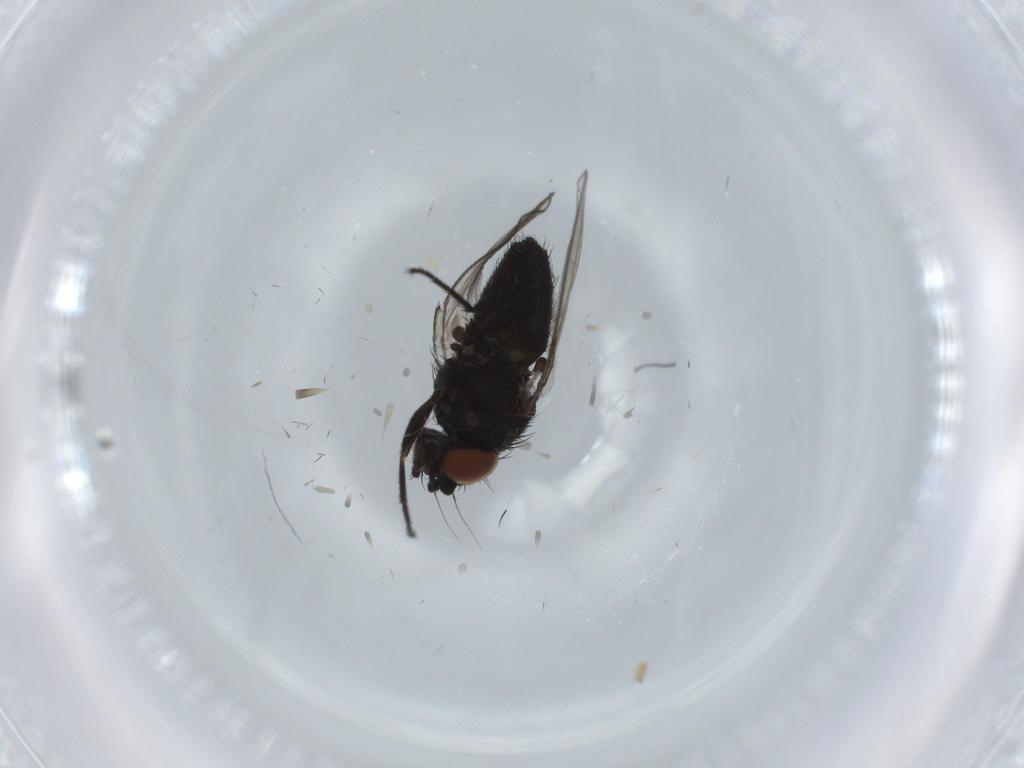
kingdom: Animalia
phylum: Arthropoda
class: Insecta
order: Diptera
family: Milichiidae
